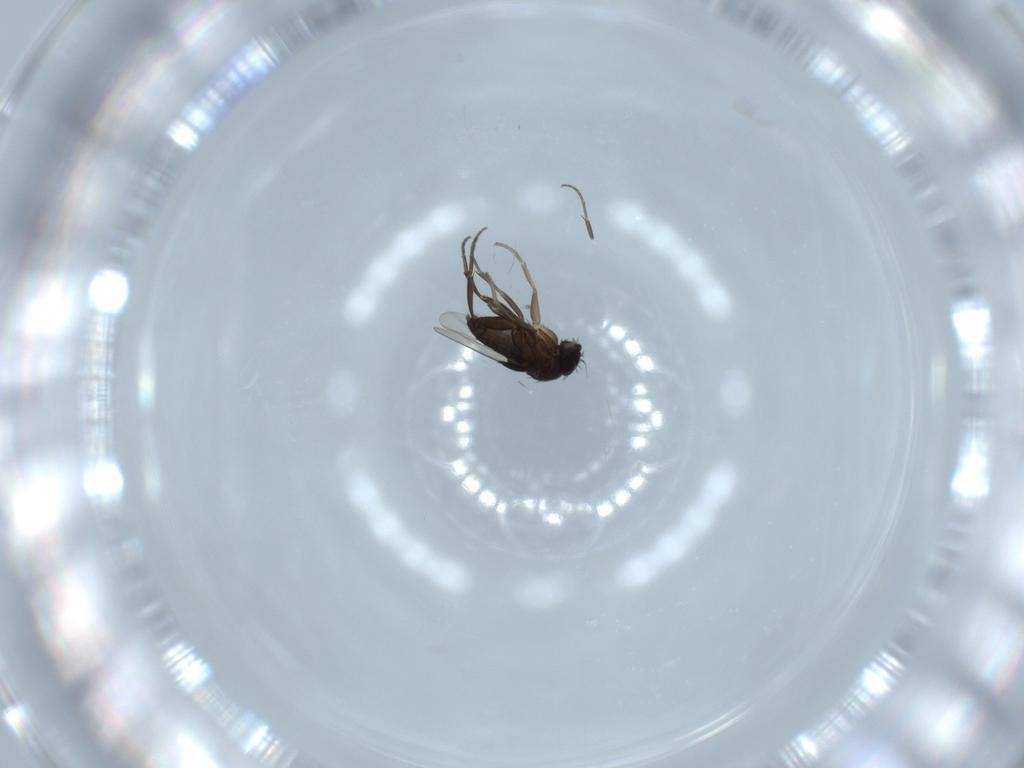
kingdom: Animalia
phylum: Arthropoda
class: Insecta
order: Diptera
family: Phoridae
